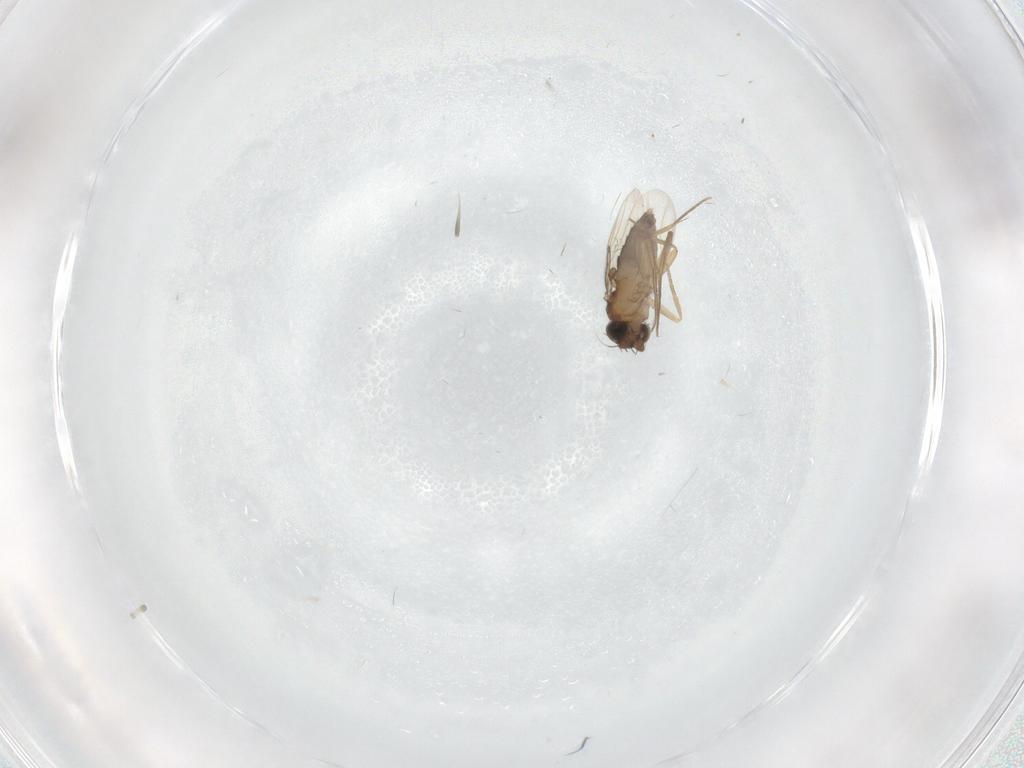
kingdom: Animalia
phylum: Arthropoda
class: Insecta
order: Diptera
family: Phoridae
